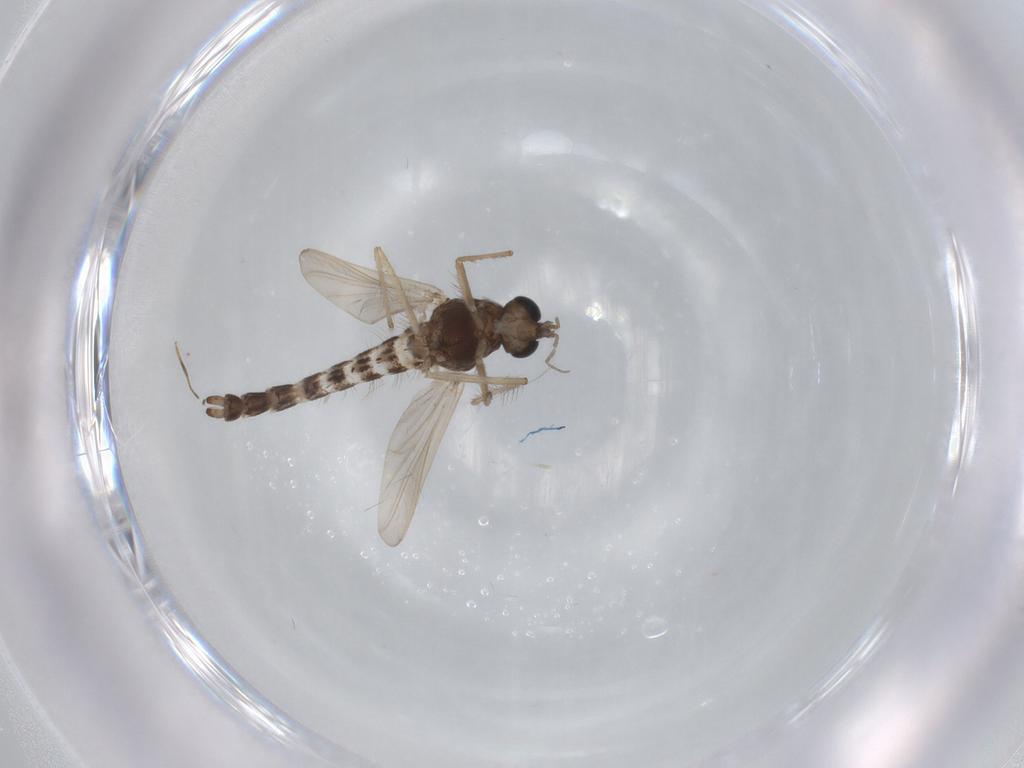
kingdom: Animalia
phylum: Arthropoda
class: Insecta
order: Diptera
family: Chironomidae
